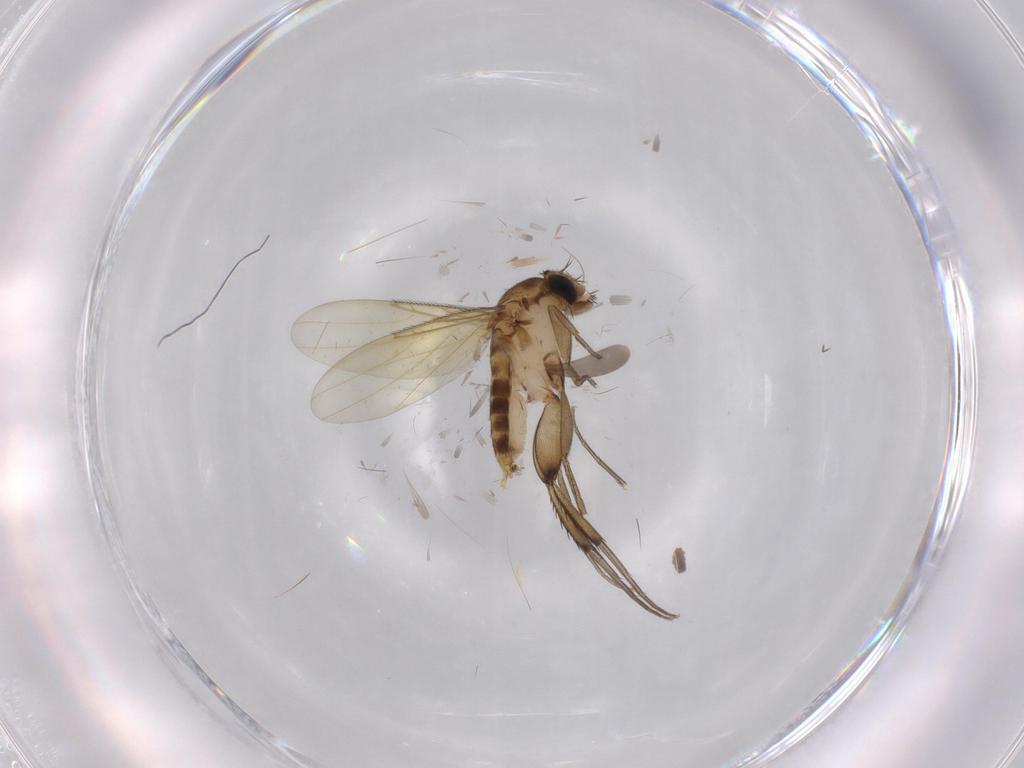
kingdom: Animalia
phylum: Arthropoda
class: Insecta
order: Diptera
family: Phoridae
